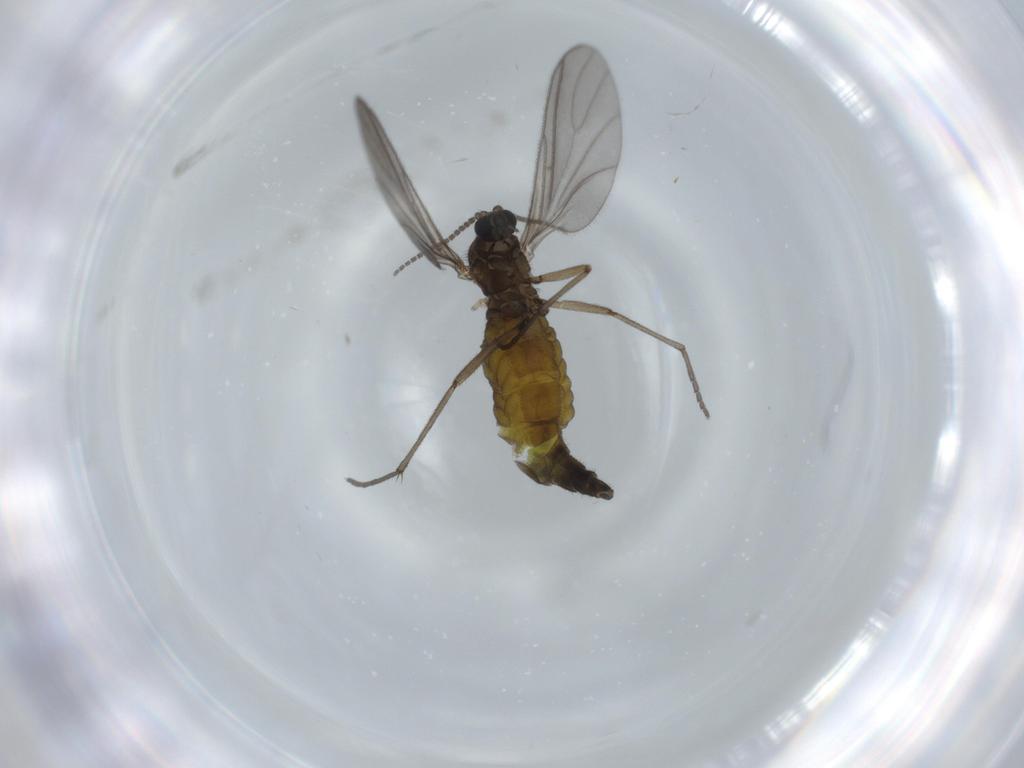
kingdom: Animalia
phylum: Arthropoda
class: Insecta
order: Diptera
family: Sciaridae
